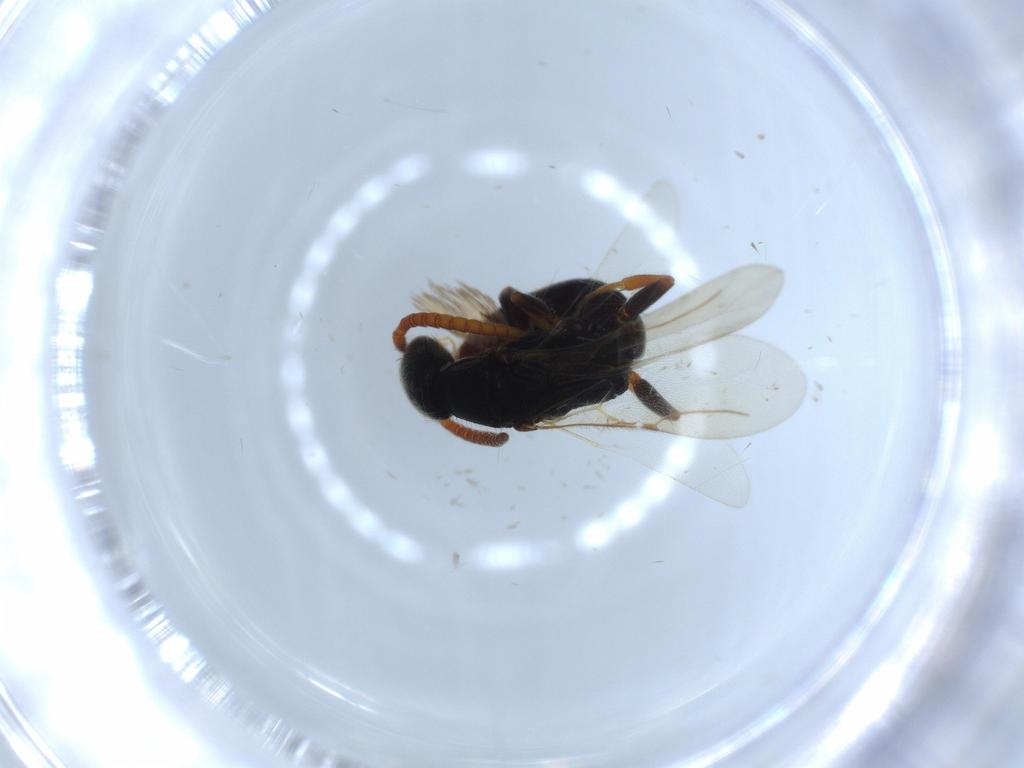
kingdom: Animalia
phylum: Arthropoda
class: Insecta
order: Hymenoptera
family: Bethylidae
